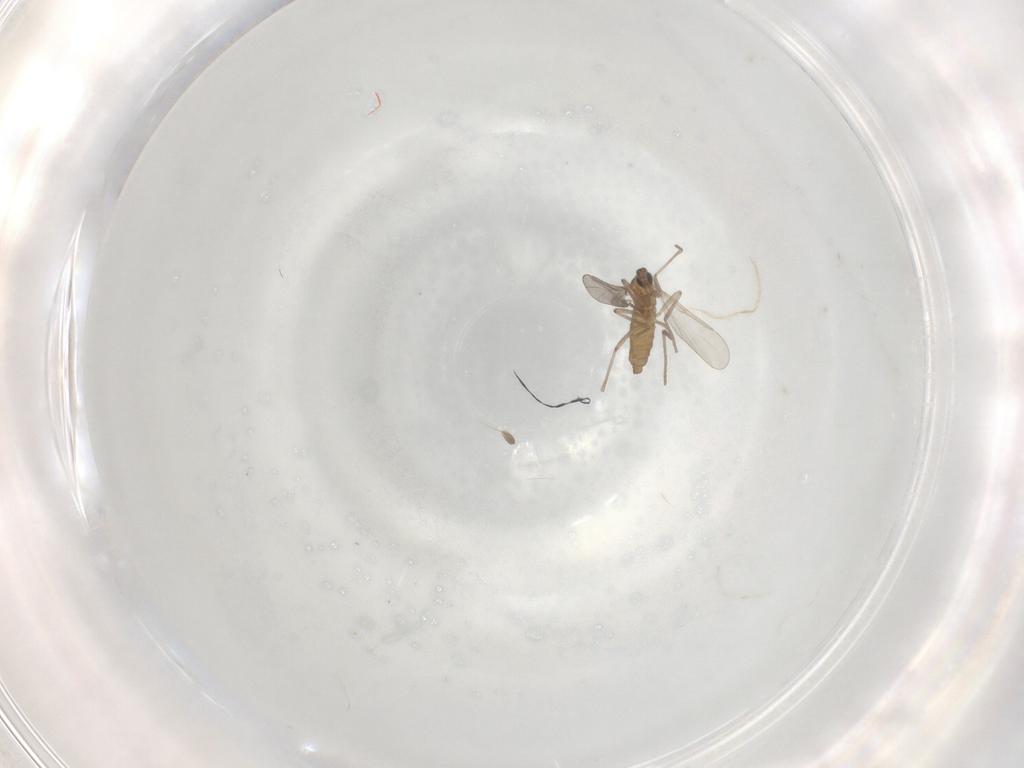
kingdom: Animalia
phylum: Arthropoda
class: Insecta
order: Diptera
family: Cecidomyiidae
